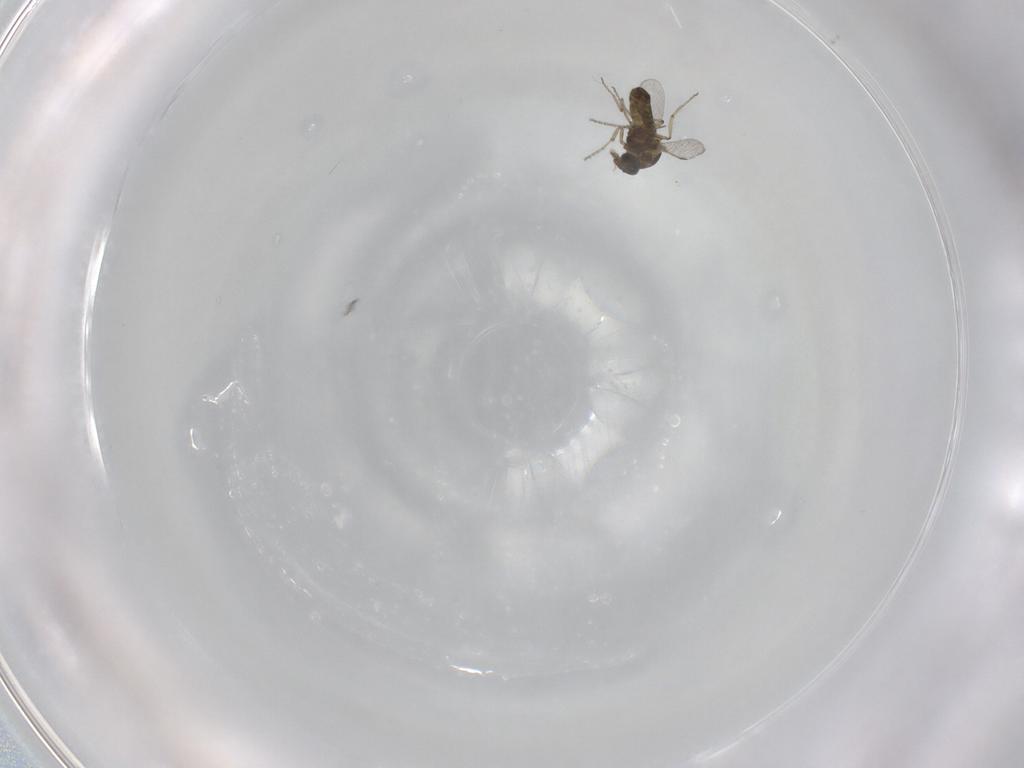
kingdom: Animalia
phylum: Arthropoda
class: Insecta
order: Diptera
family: Ceratopogonidae
